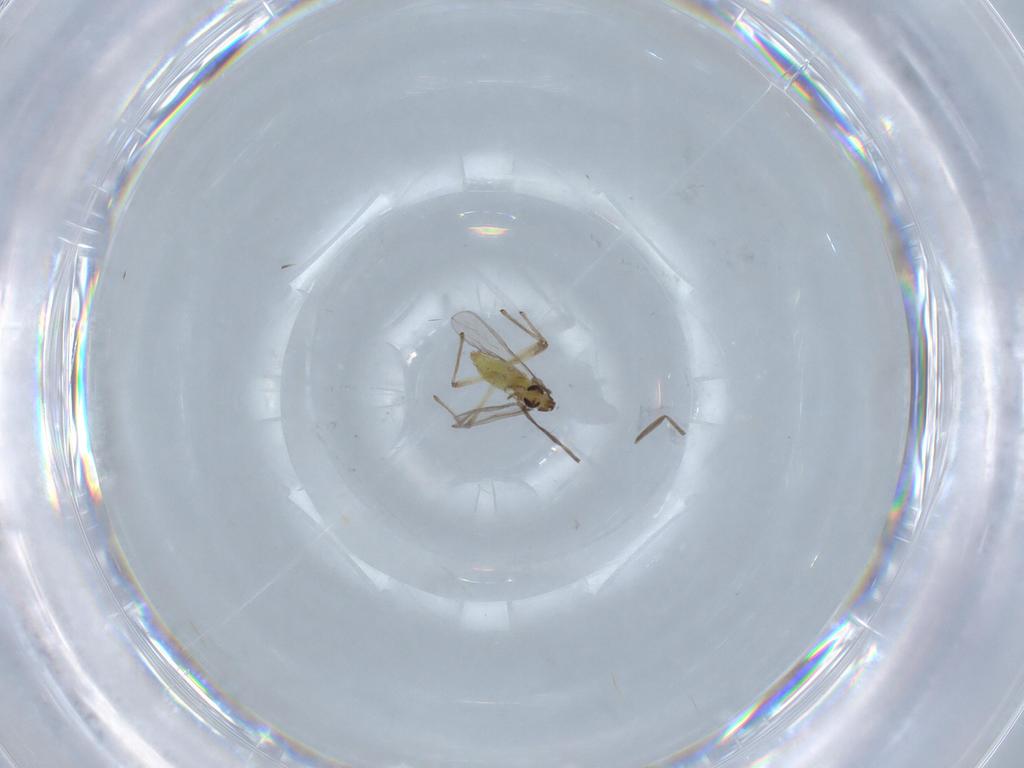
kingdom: Animalia
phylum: Arthropoda
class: Insecta
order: Diptera
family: Chironomidae
